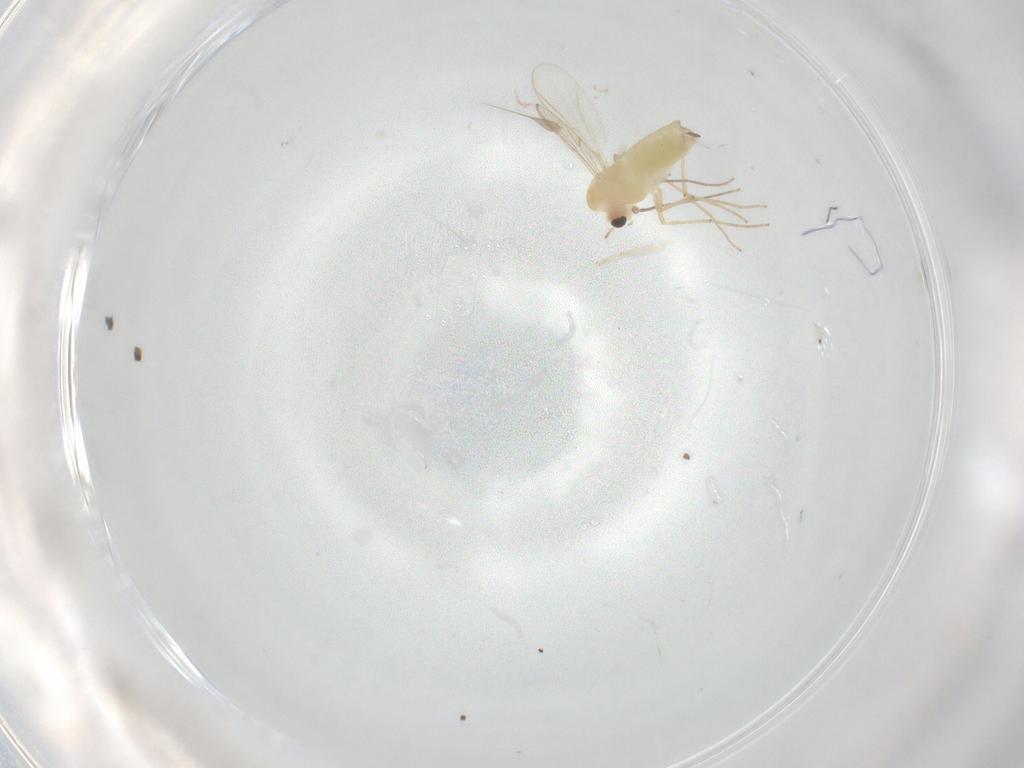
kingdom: Animalia
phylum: Arthropoda
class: Insecta
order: Diptera
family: Chironomidae
